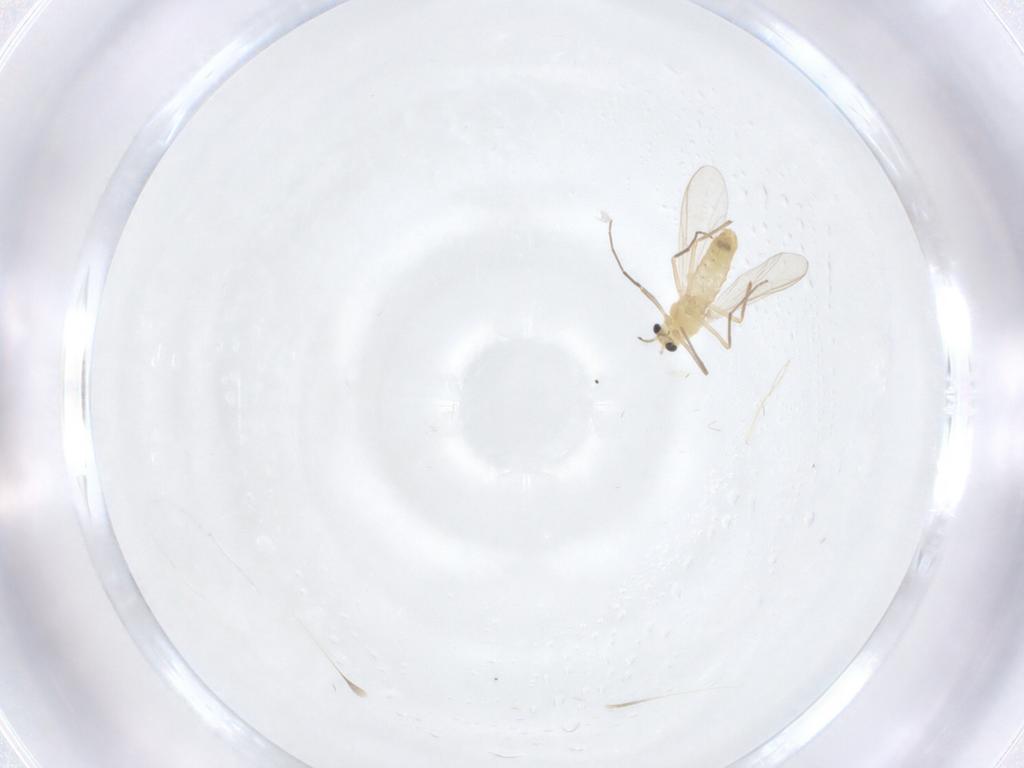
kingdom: Animalia
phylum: Arthropoda
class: Insecta
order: Diptera
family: Chironomidae
